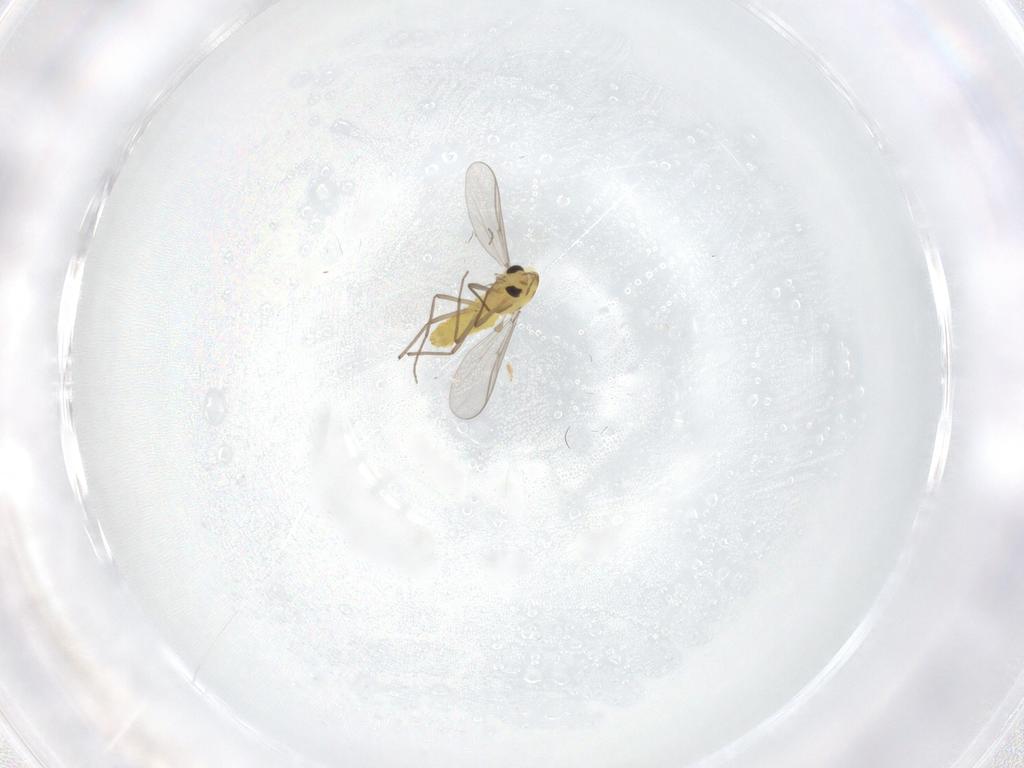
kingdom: Animalia
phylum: Arthropoda
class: Insecta
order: Diptera
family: Chironomidae
